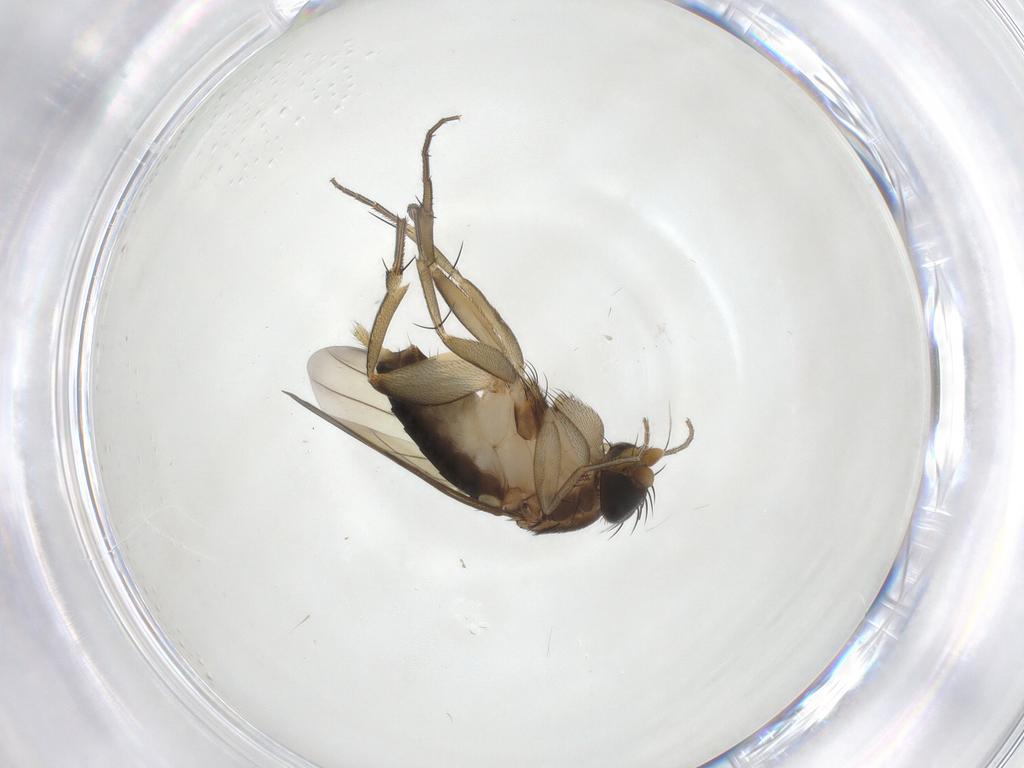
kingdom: Animalia
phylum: Arthropoda
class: Insecta
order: Diptera
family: Phoridae
